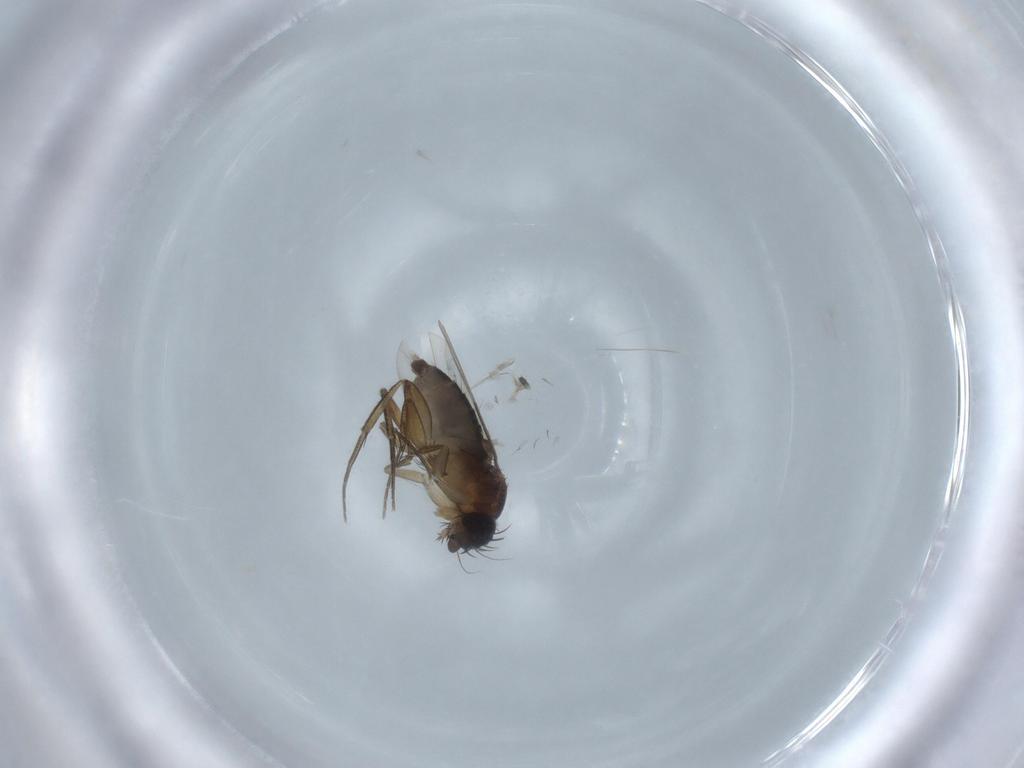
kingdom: Animalia
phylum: Arthropoda
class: Insecta
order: Diptera
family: Phoridae
